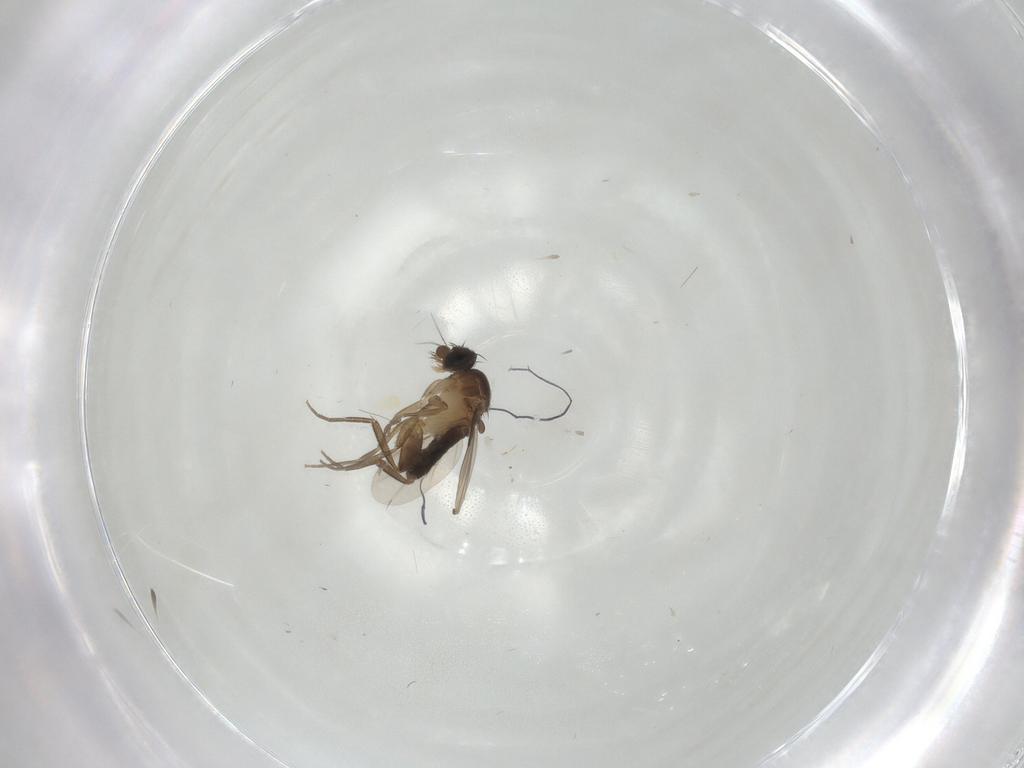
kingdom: Animalia
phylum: Arthropoda
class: Insecta
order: Diptera
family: Phoridae
